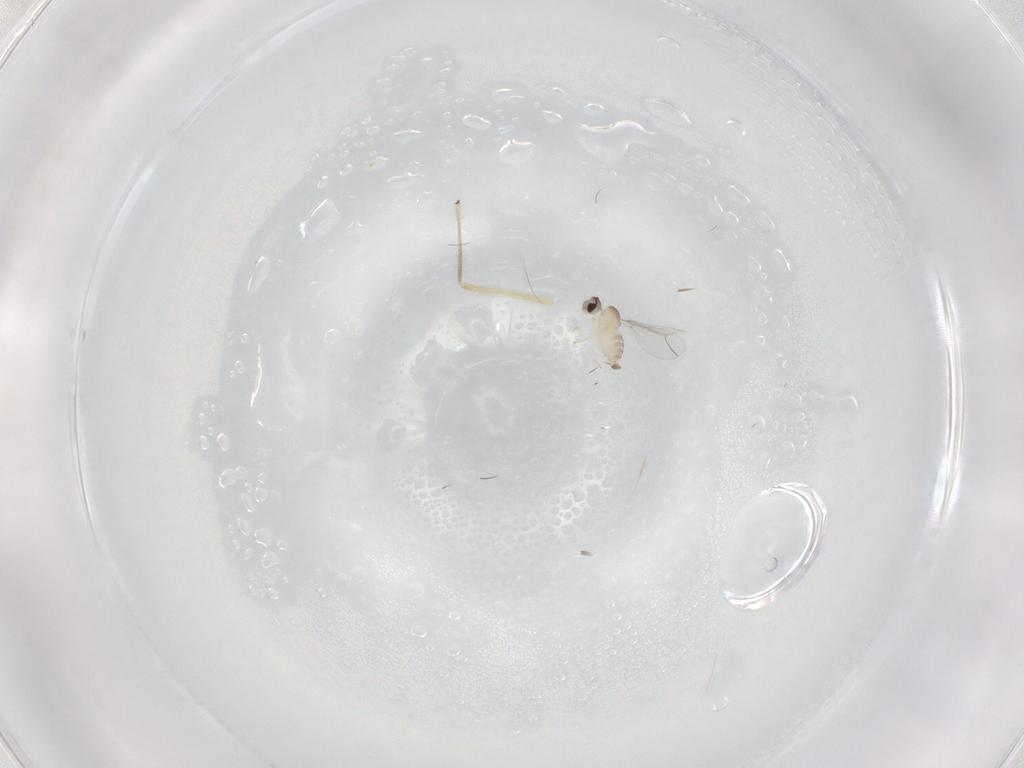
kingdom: Animalia
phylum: Arthropoda
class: Insecta
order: Diptera
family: Cecidomyiidae
